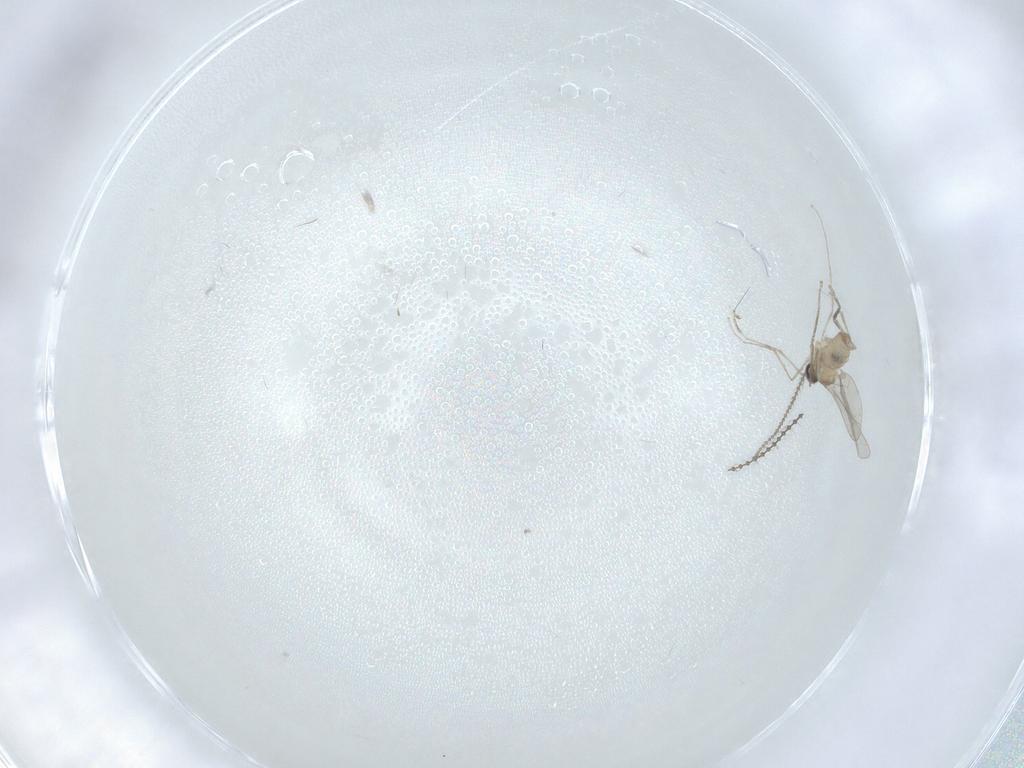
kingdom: Animalia
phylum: Arthropoda
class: Insecta
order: Diptera
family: Cecidomyiidae
